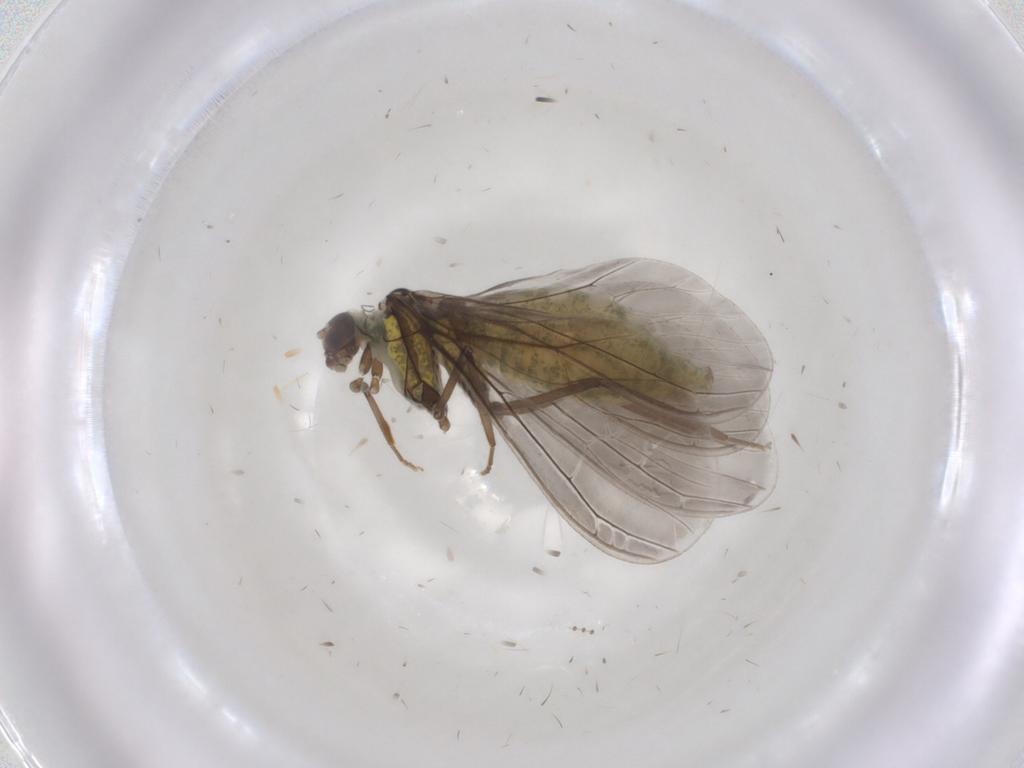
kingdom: Animalia
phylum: Arthropoda
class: Insecta
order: Neuroptera
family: Coniopterygidae
